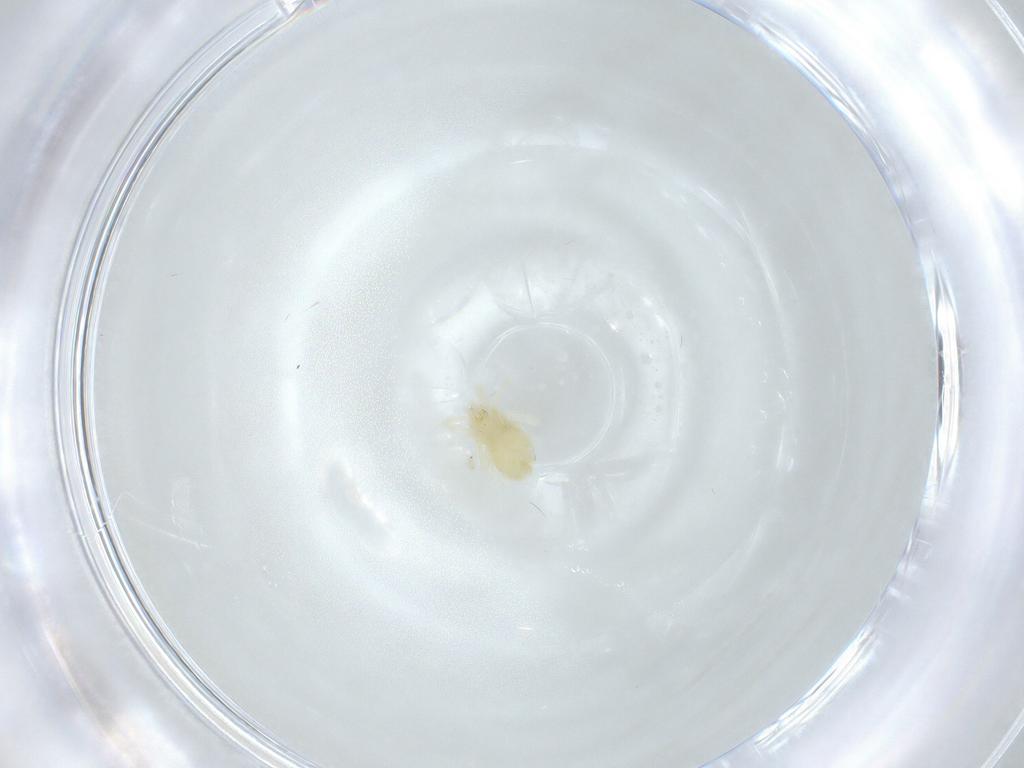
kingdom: Animalia
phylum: Arthropoda
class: Arachnida
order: Trombidiformes
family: Anystidae
